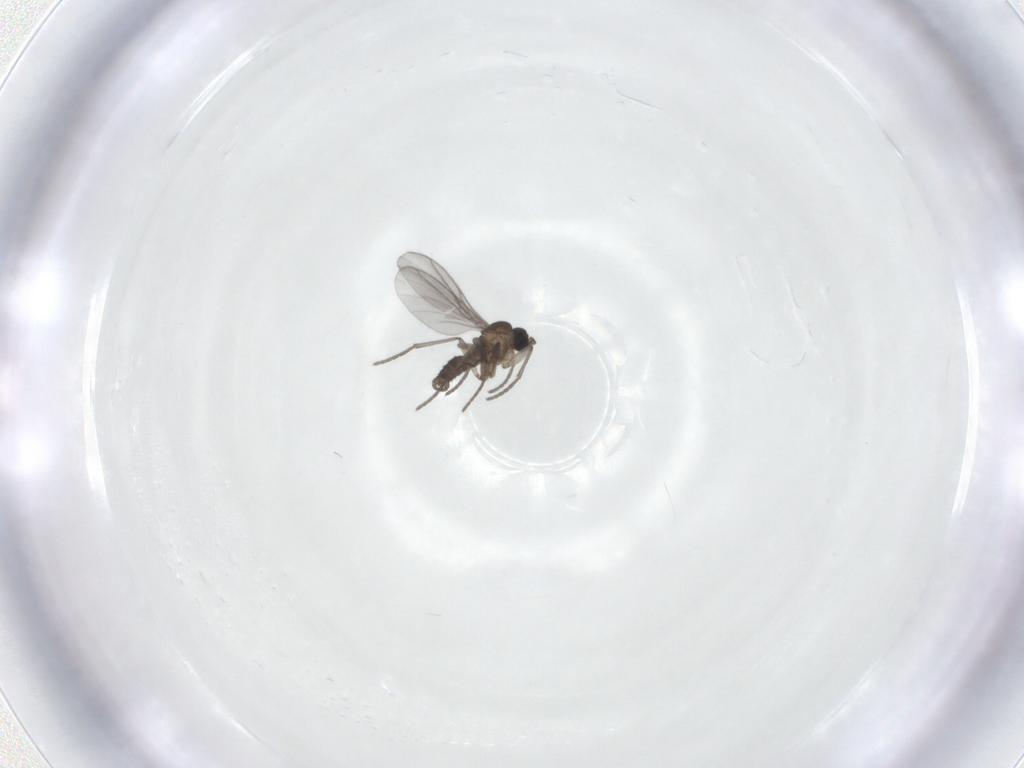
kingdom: Animalia
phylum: Arthropoda
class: Insecta
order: Diptera
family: Sciaridae
